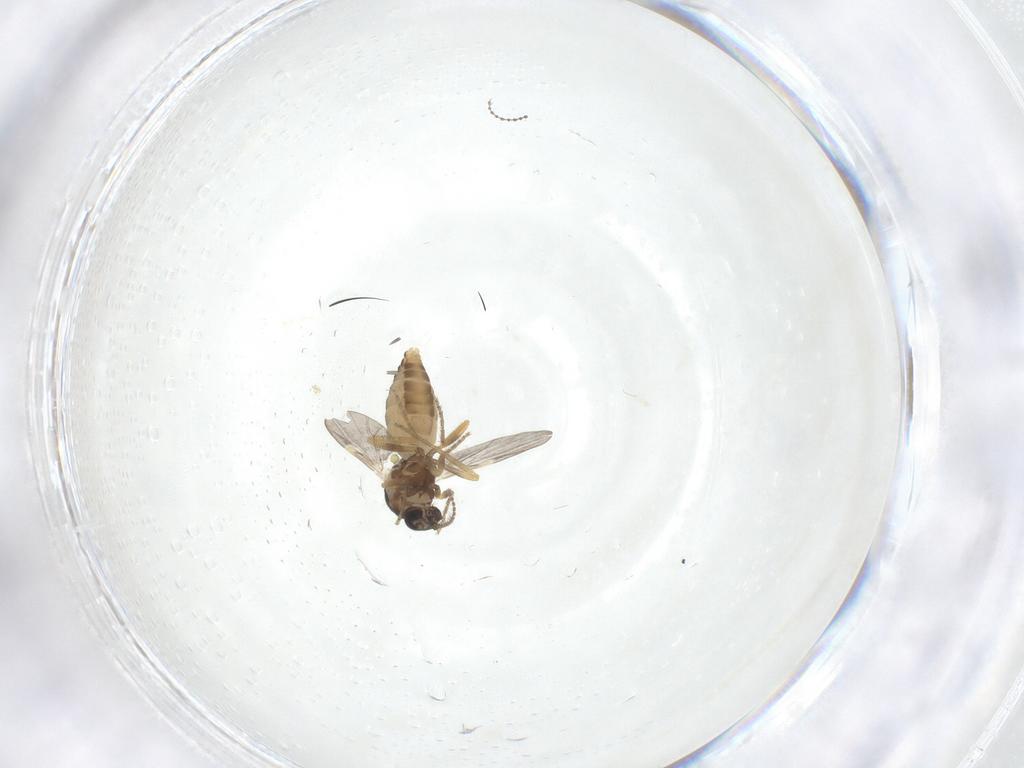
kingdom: Animalia
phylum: Arthropoda
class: Insecta
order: Diptera
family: Ceratopogonidae
